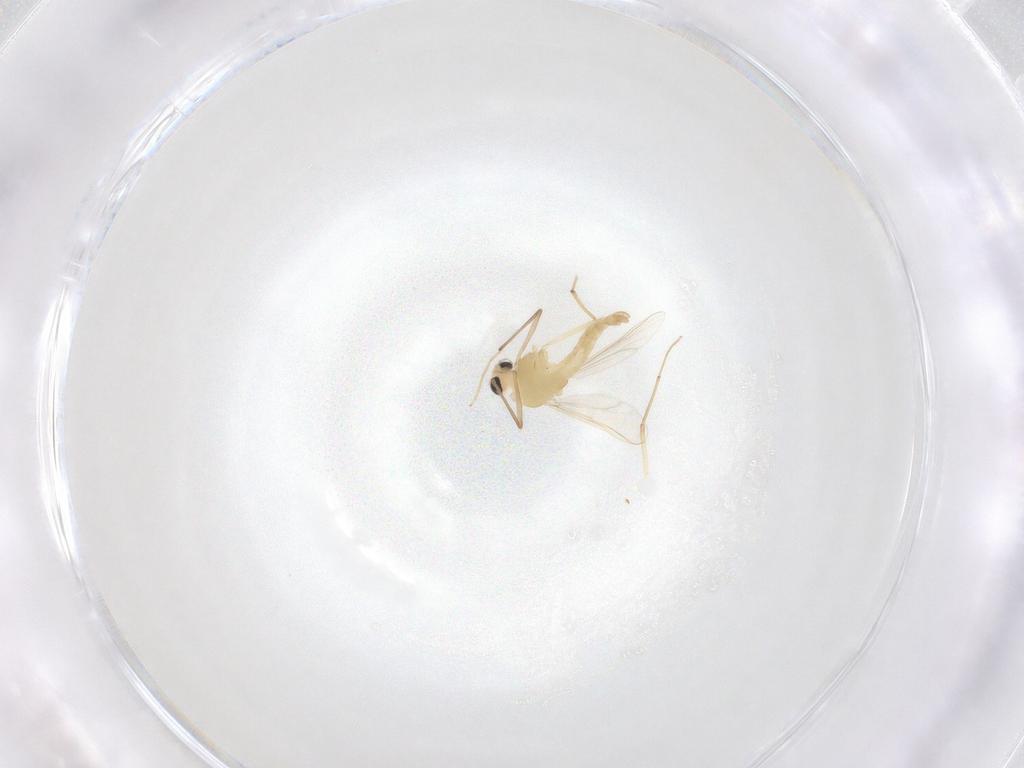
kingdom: Animalia
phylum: Arthropoda
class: Insecta
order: Diptera
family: Chironomidae
